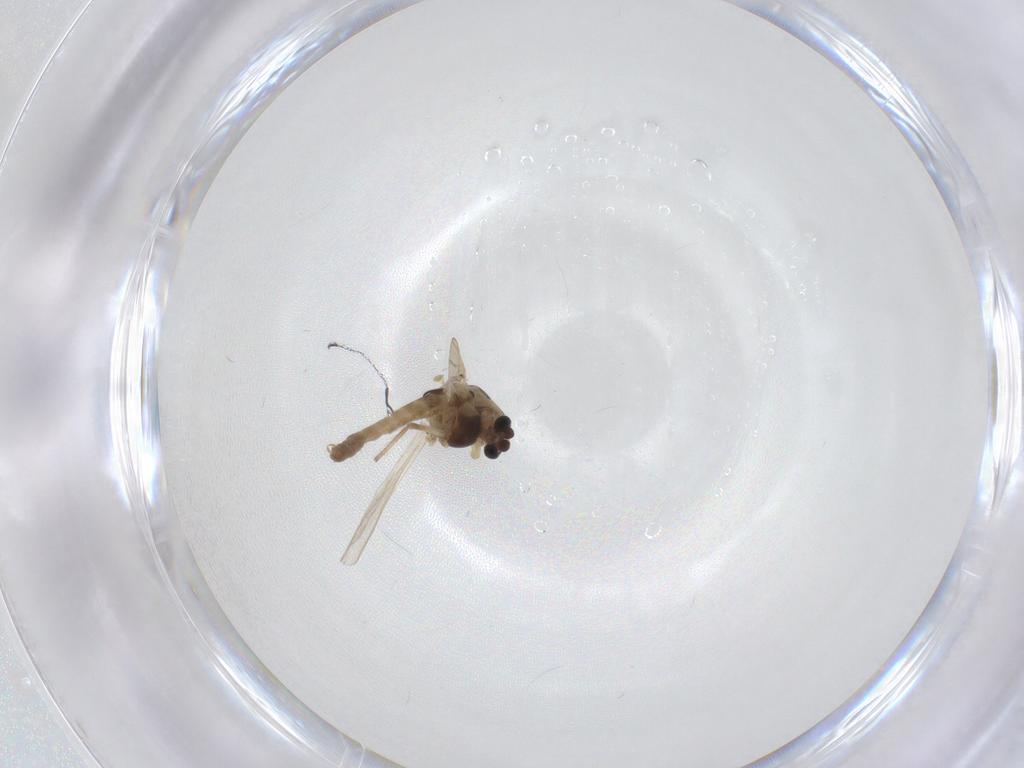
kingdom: Animalia
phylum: Arthropoda
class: Insecta
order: Diptera
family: Chironomidae
